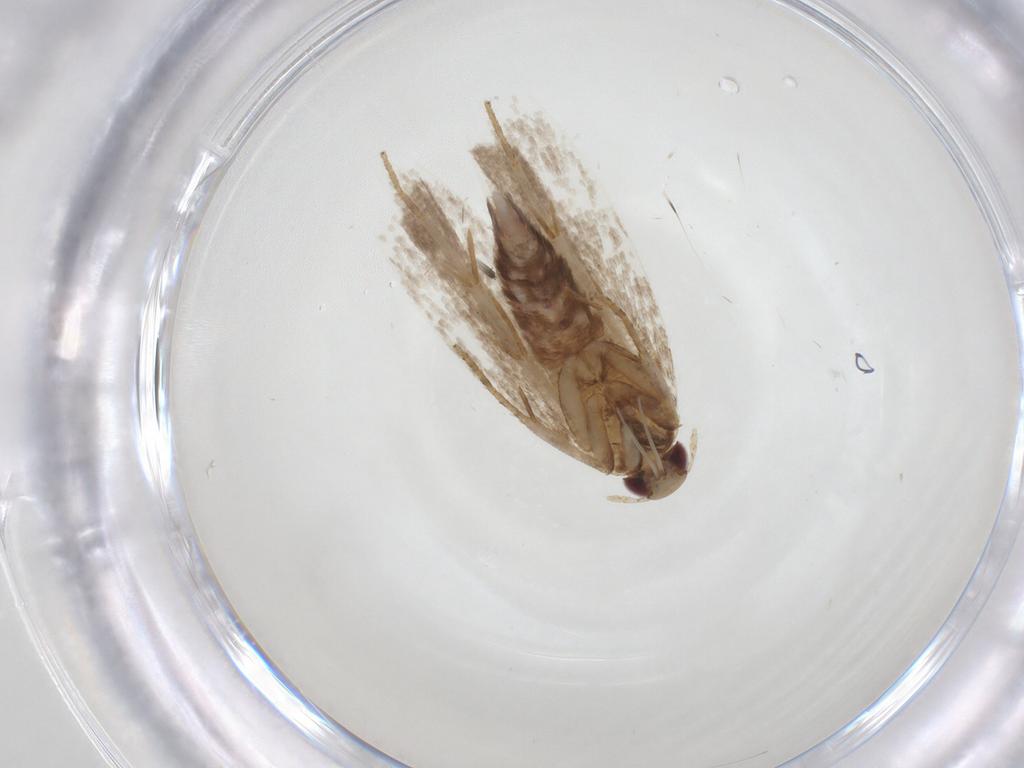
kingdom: Animalia
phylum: Arthropoda
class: Insecta
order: Lepidoptera
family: Gelechiidae
